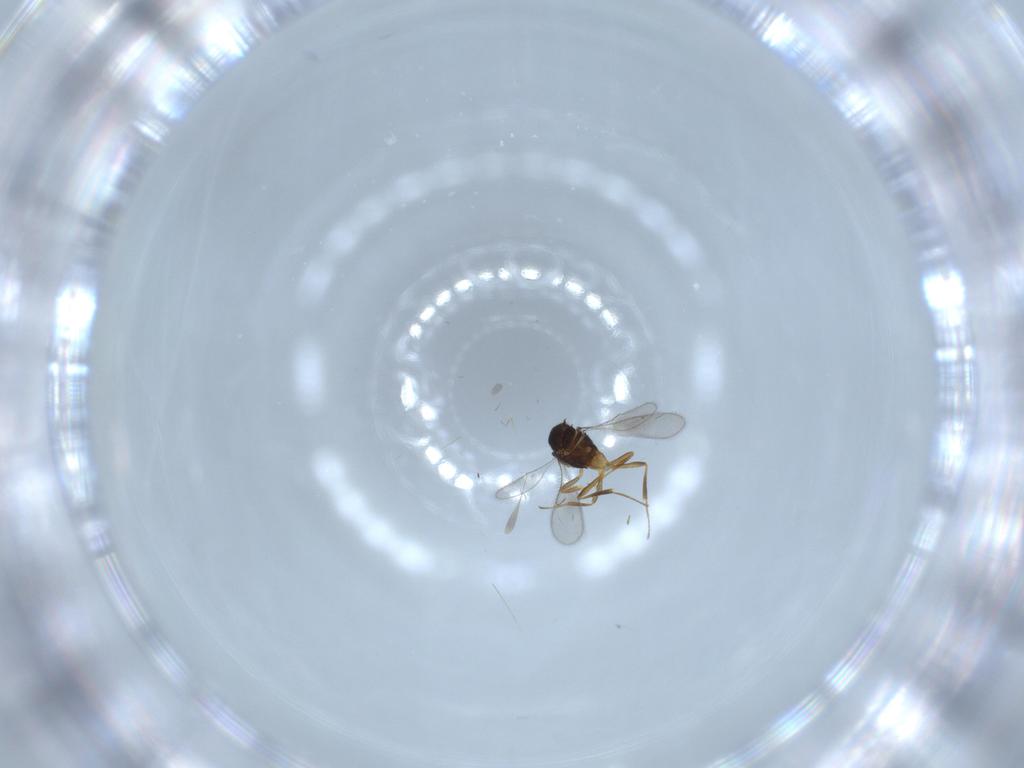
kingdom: Animalia
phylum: Arthropoda
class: Insecta
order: Hymenoptera
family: Scelionidae
